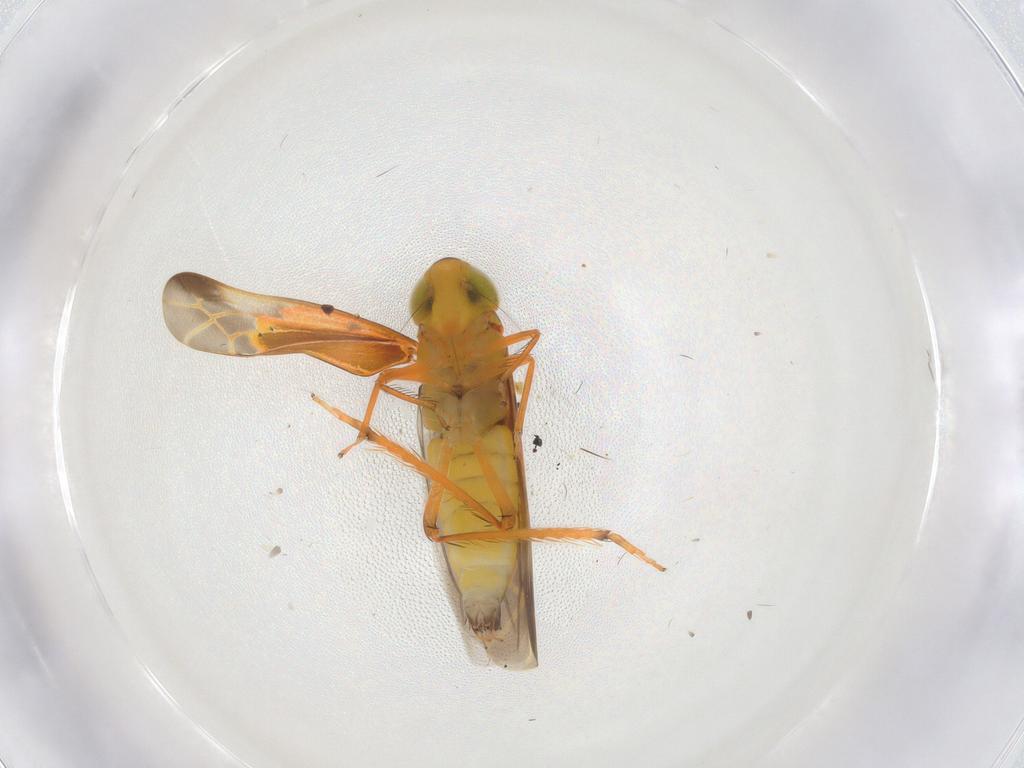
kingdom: Animalia
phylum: Arthropoda
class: Insecta
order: Hemiptera
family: Cicadellidae
